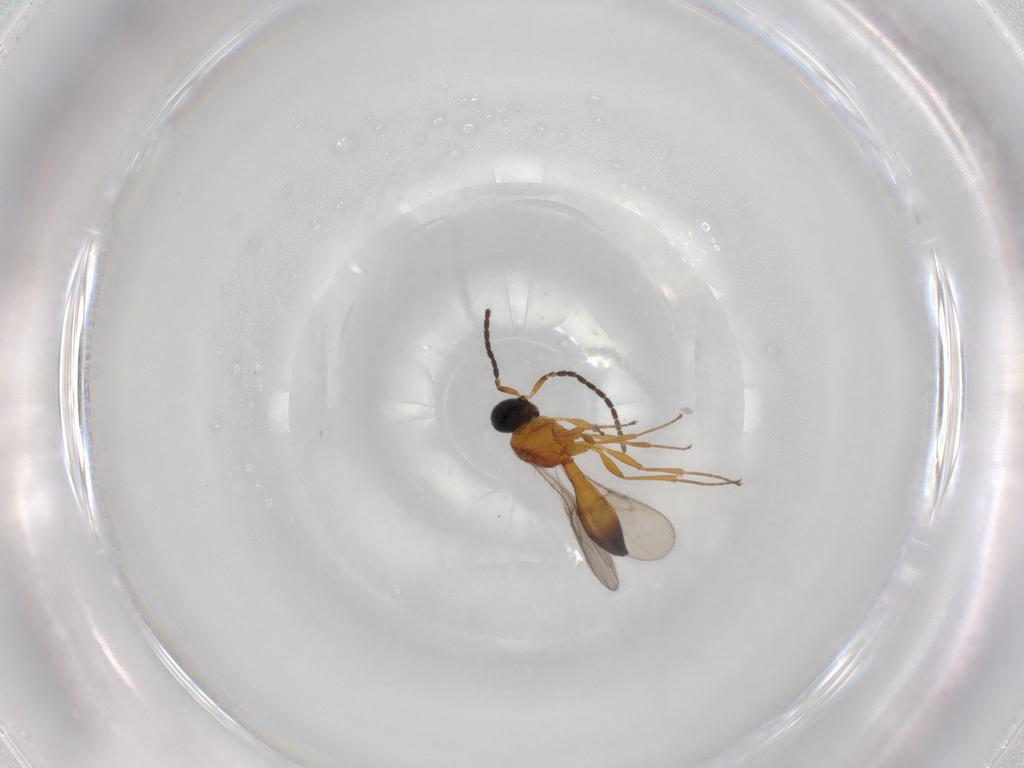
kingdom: Animalia
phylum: Arthropoda
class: Insecta
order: Hymenoptera
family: Scelionidae
